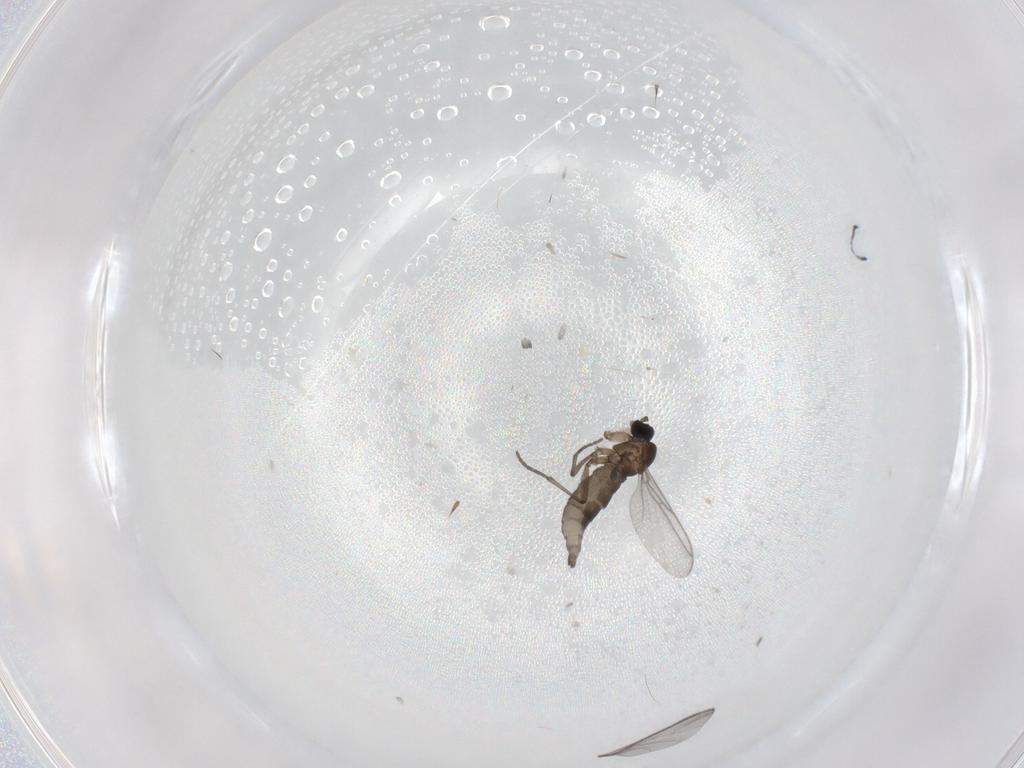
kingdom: Animalia
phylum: Arthropoda
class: Insecta
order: Diptera
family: Sciaridae
